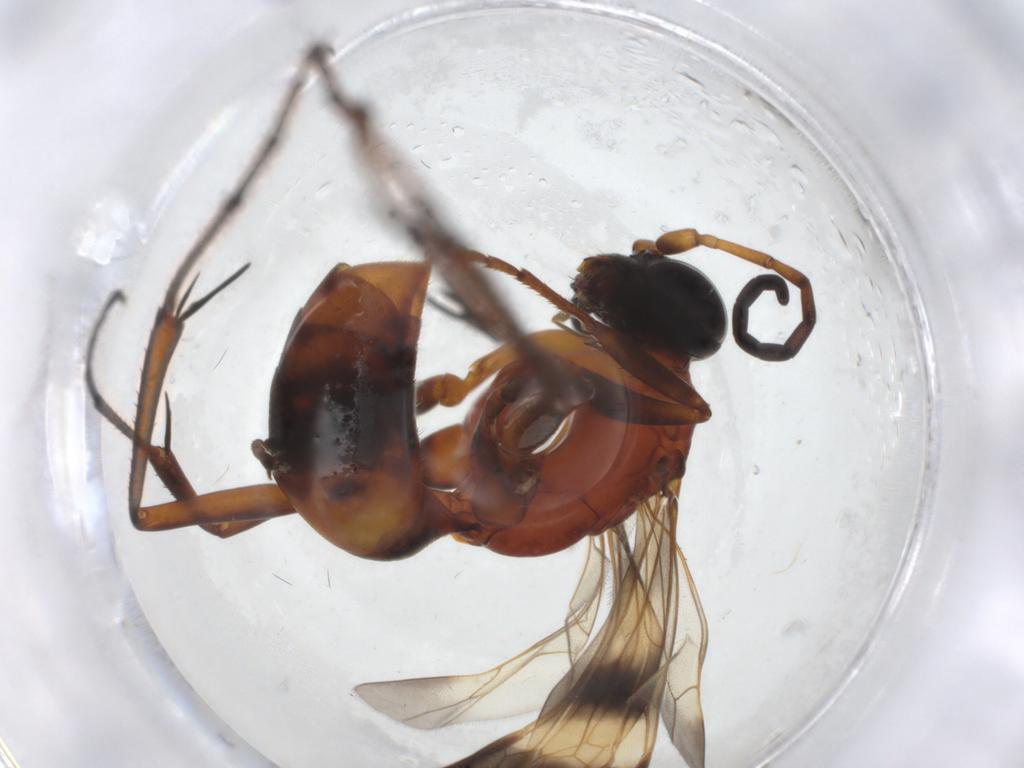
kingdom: Animalia
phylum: Arthropoda
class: Insecta
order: Hymenoptera
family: Pompilidae
